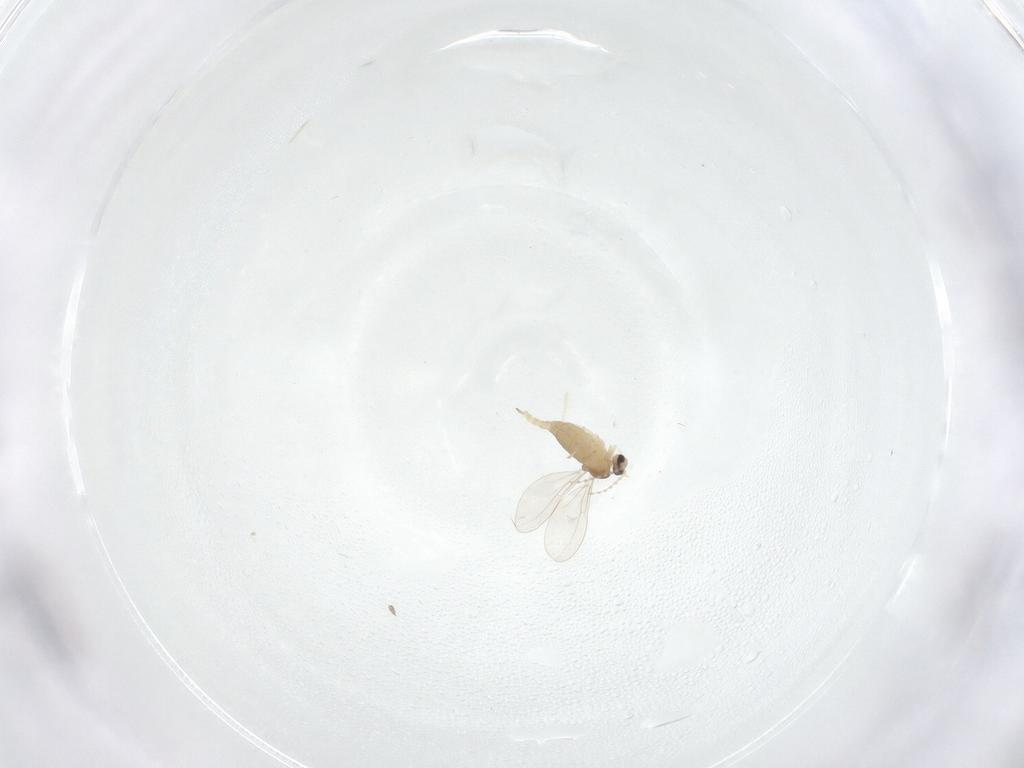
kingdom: Animalia
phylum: Arthropoda
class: Insecta
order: Diptera
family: Cecidomyiidae
